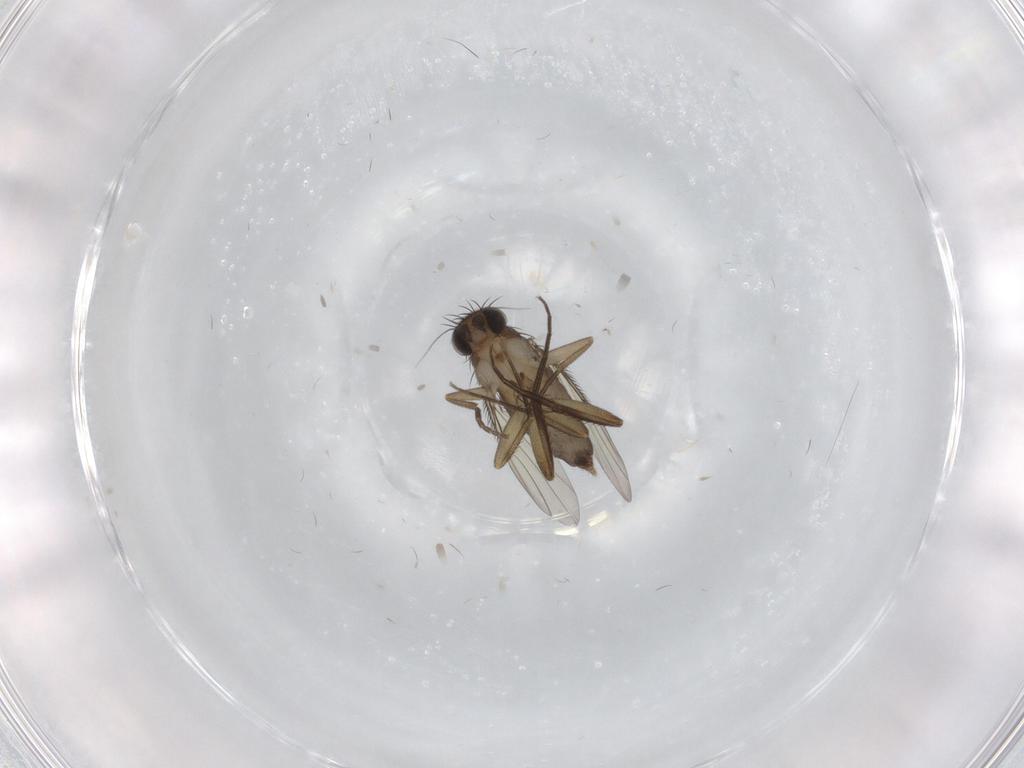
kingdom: Animalia
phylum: Arthropoda
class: Insecta
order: Diptera
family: Phoridae
